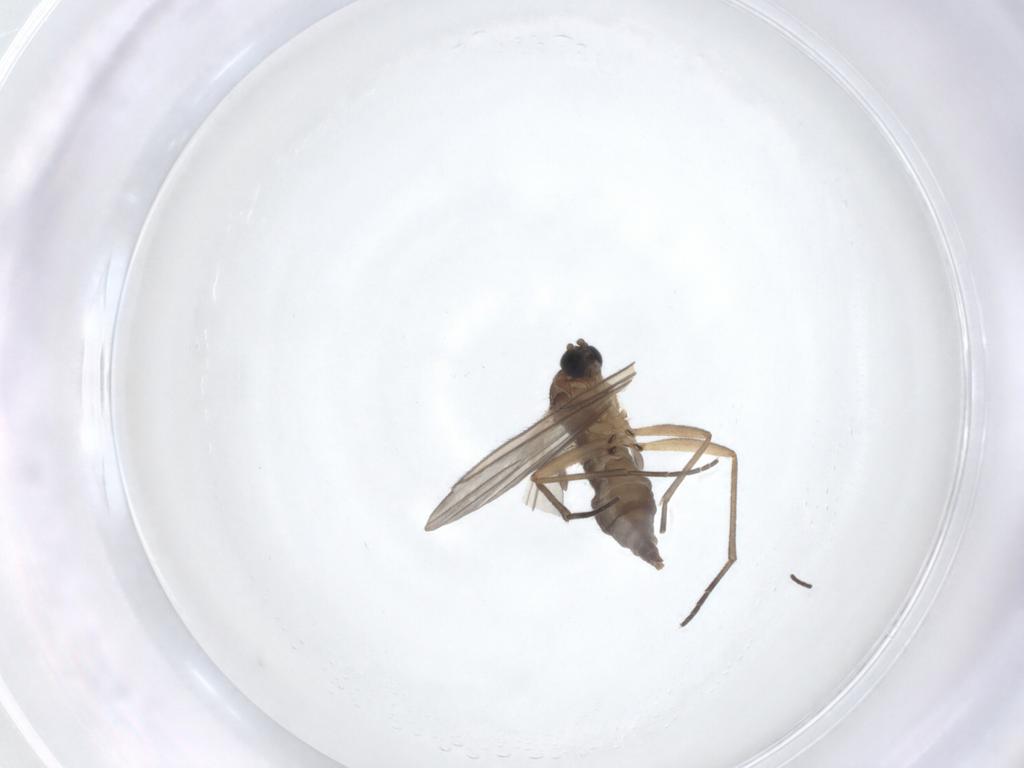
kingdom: Animalia
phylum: Arthropoda
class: Insecta
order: Diptera
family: Sciaridae
